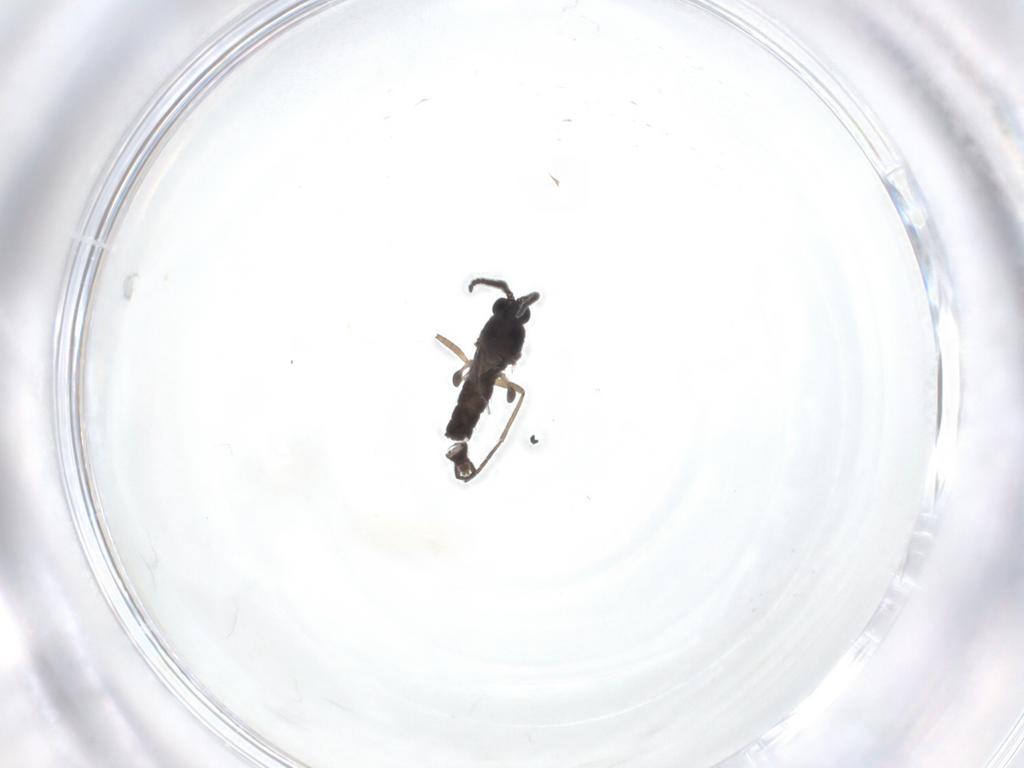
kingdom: Animalia
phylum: Arthropoda
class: Insecta
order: Diptera
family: Sciaridae
